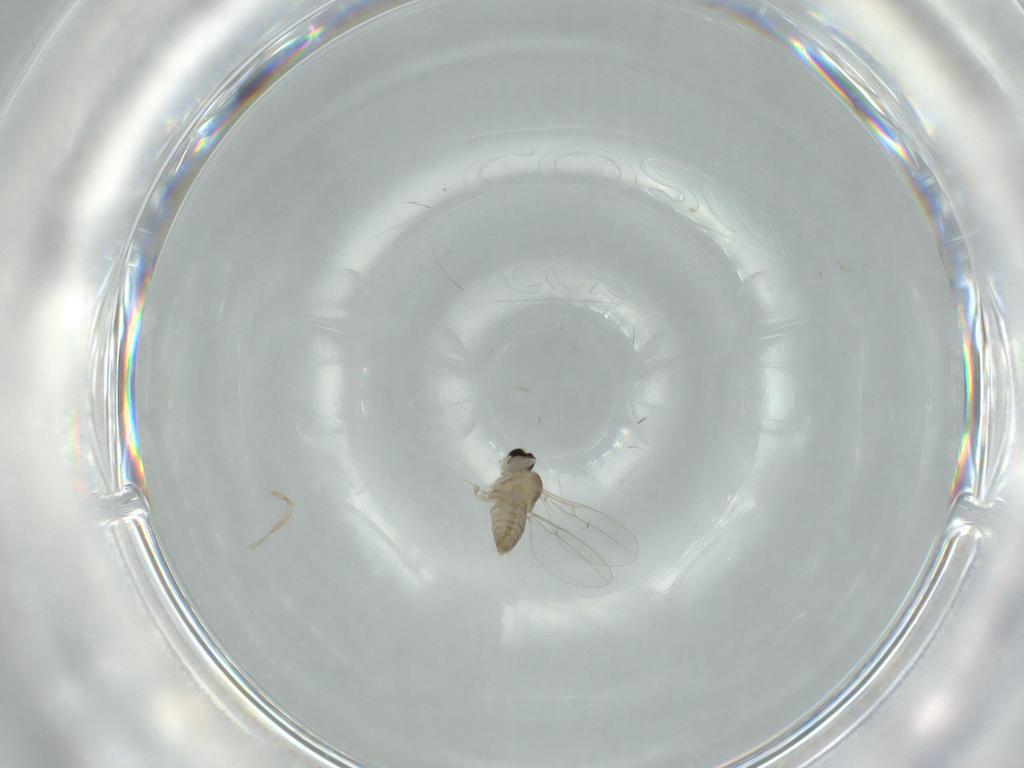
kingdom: Animalia
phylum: Arthropoda
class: Insecta
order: Diptera
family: Cecidomyiidae
